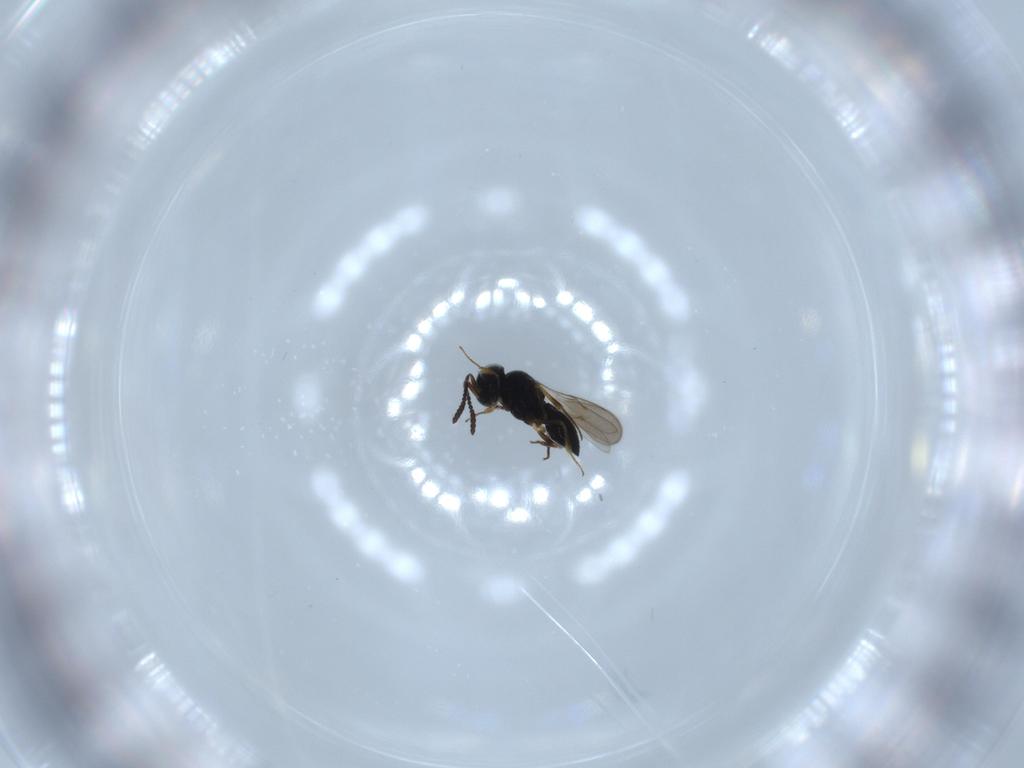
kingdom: Animalia
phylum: Arthropoda
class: Insecta
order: Hymenoptera
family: Scelionidae
